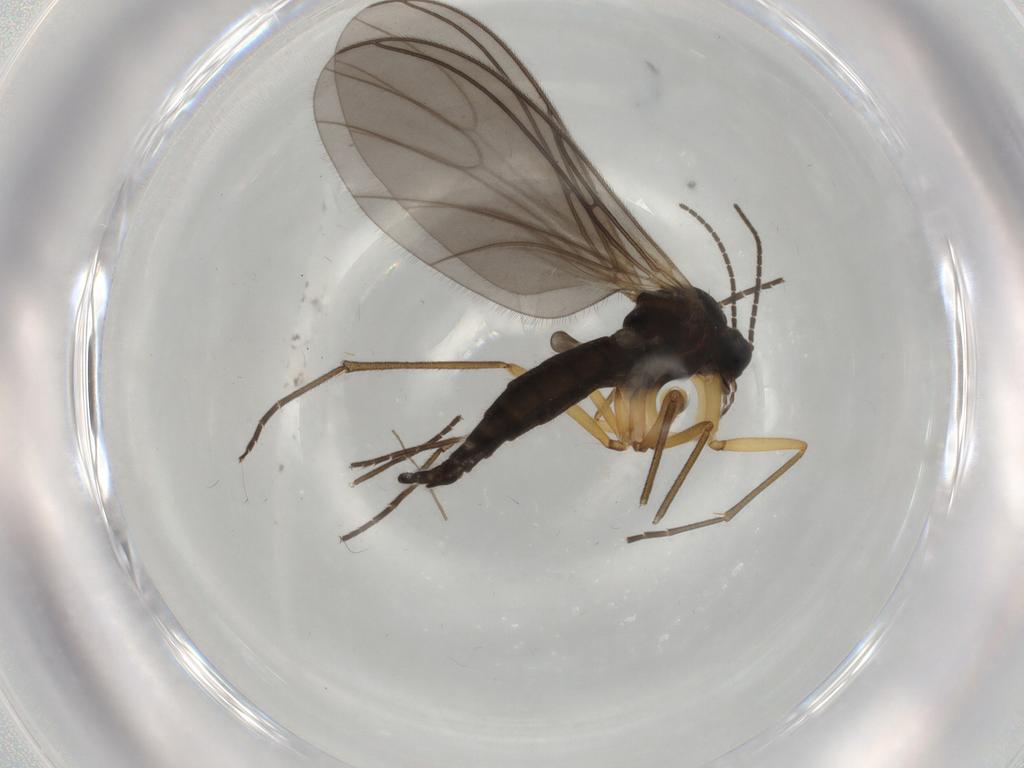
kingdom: Animalia
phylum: Arthropoda
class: Insecta
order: Diptera
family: Sciaridae
